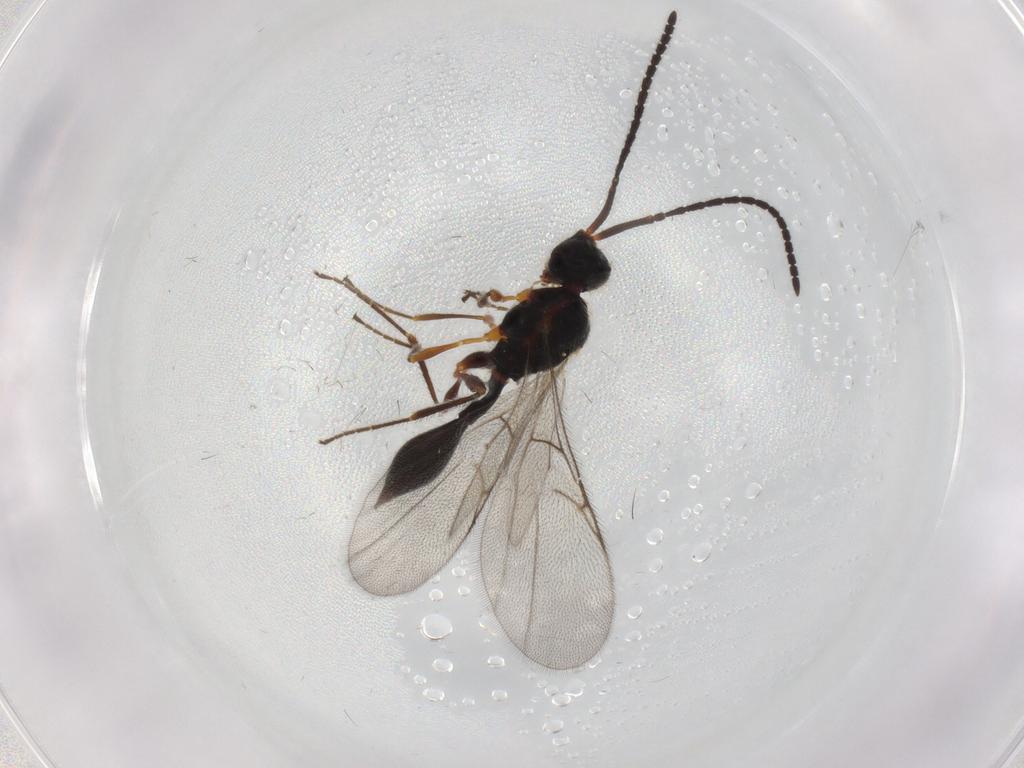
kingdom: Animalia
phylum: Arthropoda
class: Insecta
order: Hymenoptera
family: Diapriidae
